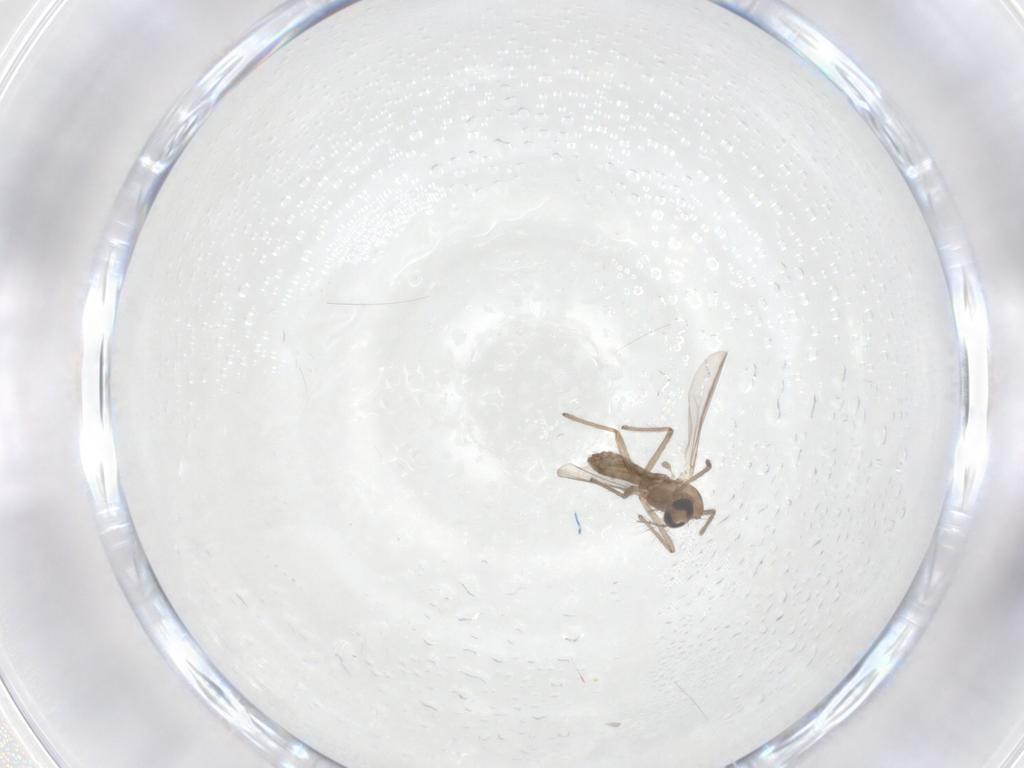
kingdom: Animalia
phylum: Arthropoda
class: Insecta
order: Diptera
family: Chironomidae
